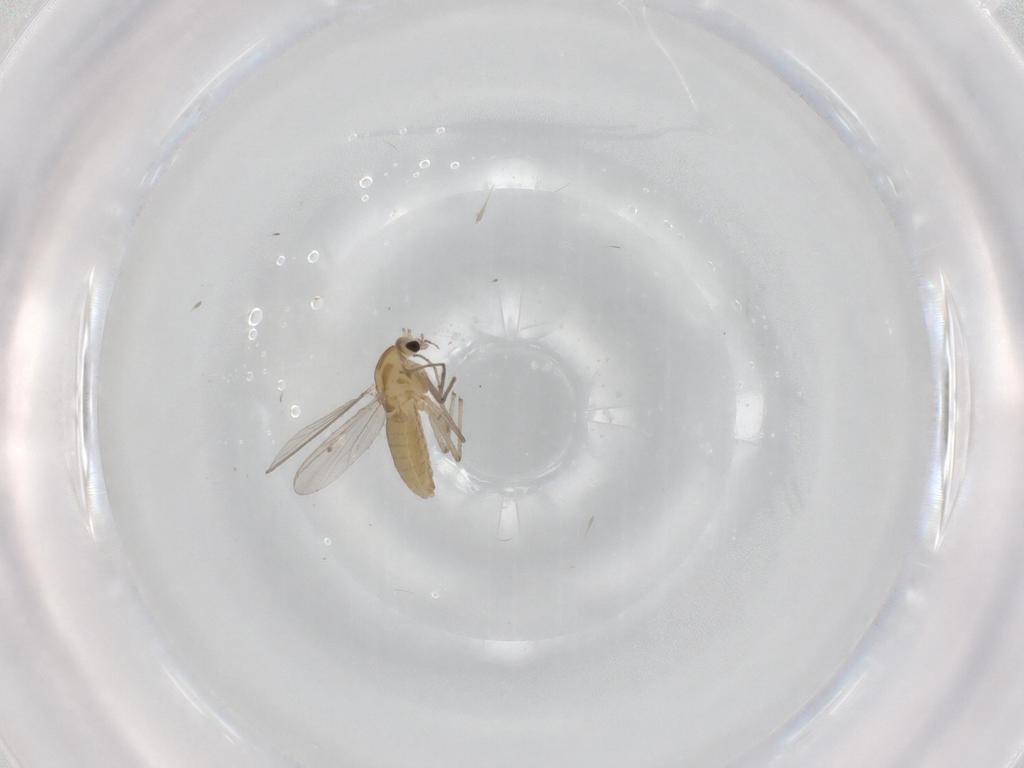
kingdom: Animalia
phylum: Arthropoda
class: Insecta
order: Diptera
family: Chironomidae
